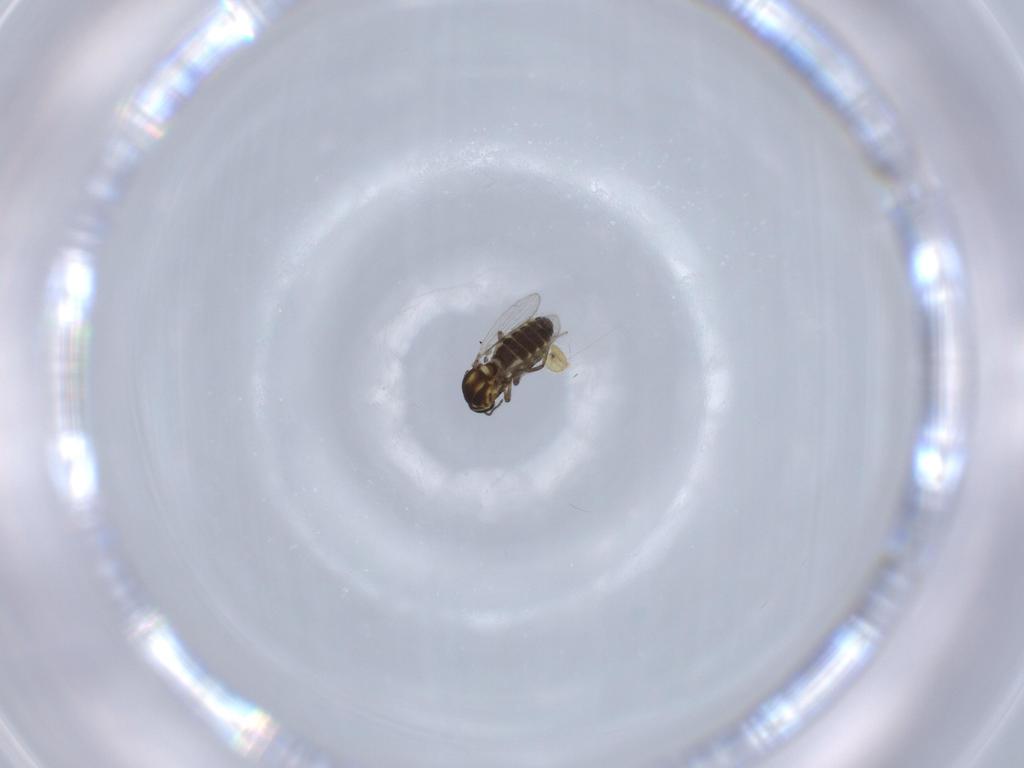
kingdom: Animalia
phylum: Arthropoda
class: Insecta
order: Diptera
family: Ceratopogonidae
